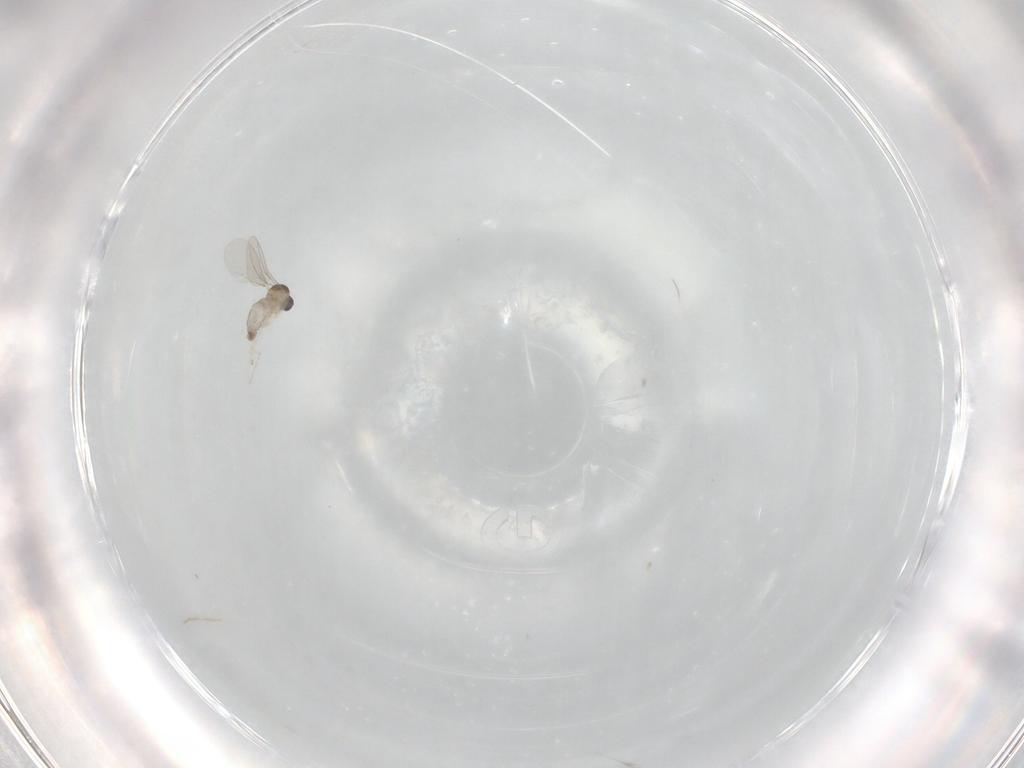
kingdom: Animalia
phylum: Arthropoda
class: Insecta
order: Diptera
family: Cecidomyiidae
